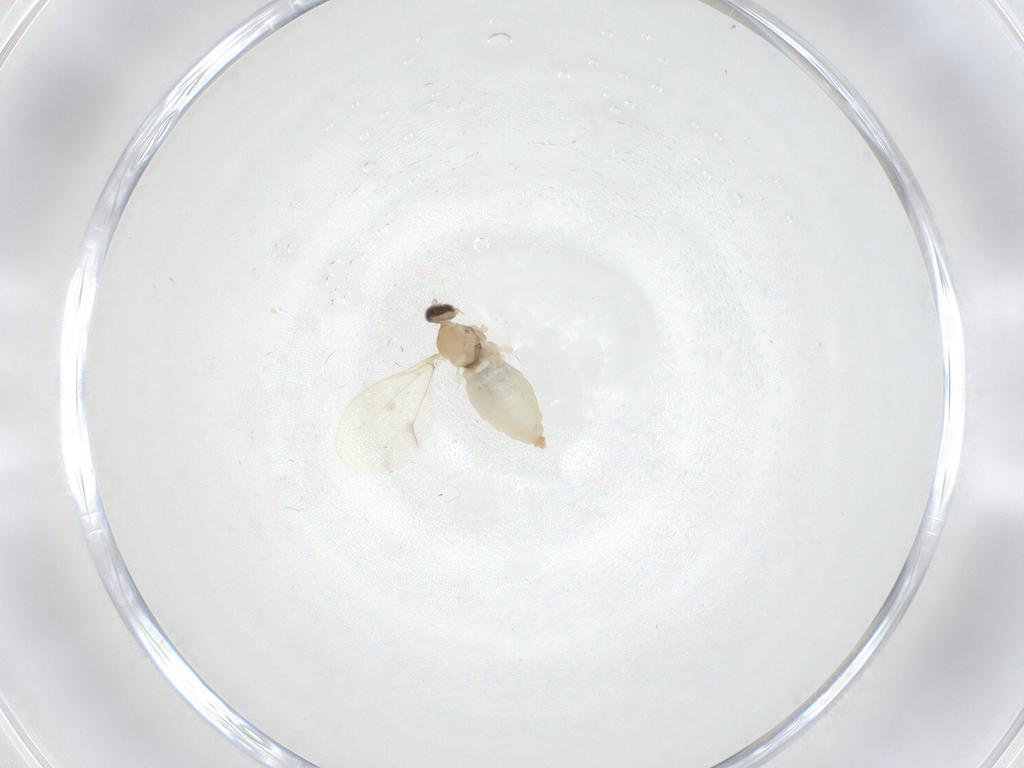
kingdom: Animalia
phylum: Arthropoda
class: Insecta
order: Diptera
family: Cecidomyiidae
